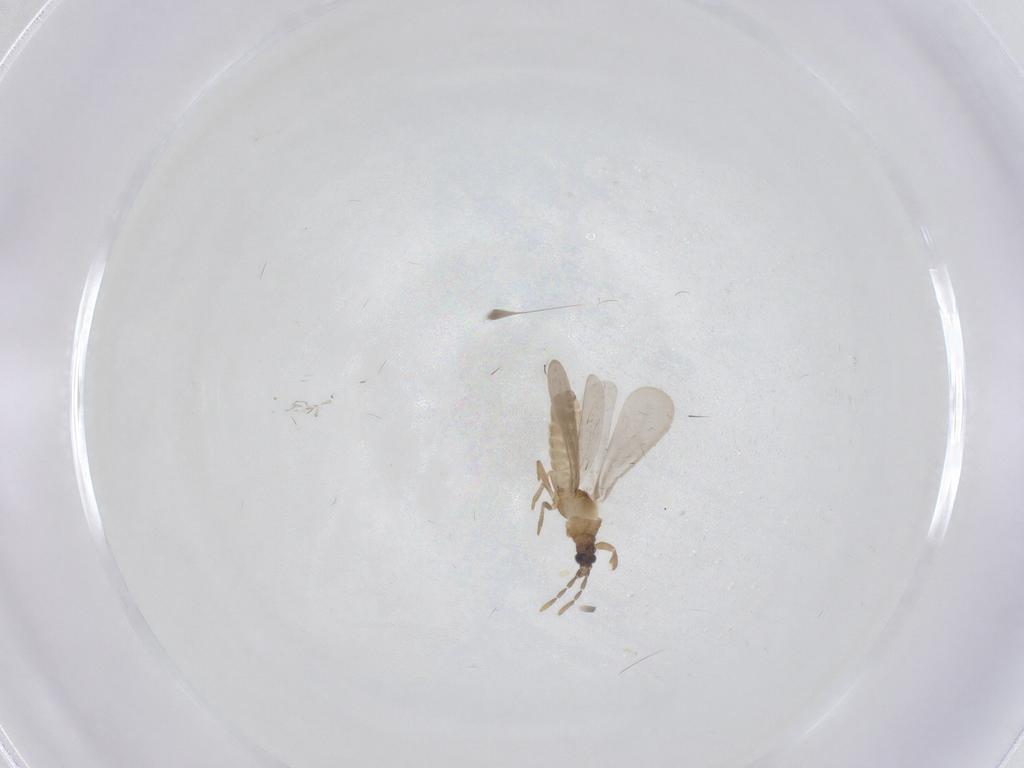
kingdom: Animalia
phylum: Arthropoda
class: Insecta
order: Hemiptera
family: Enicocephalidae
